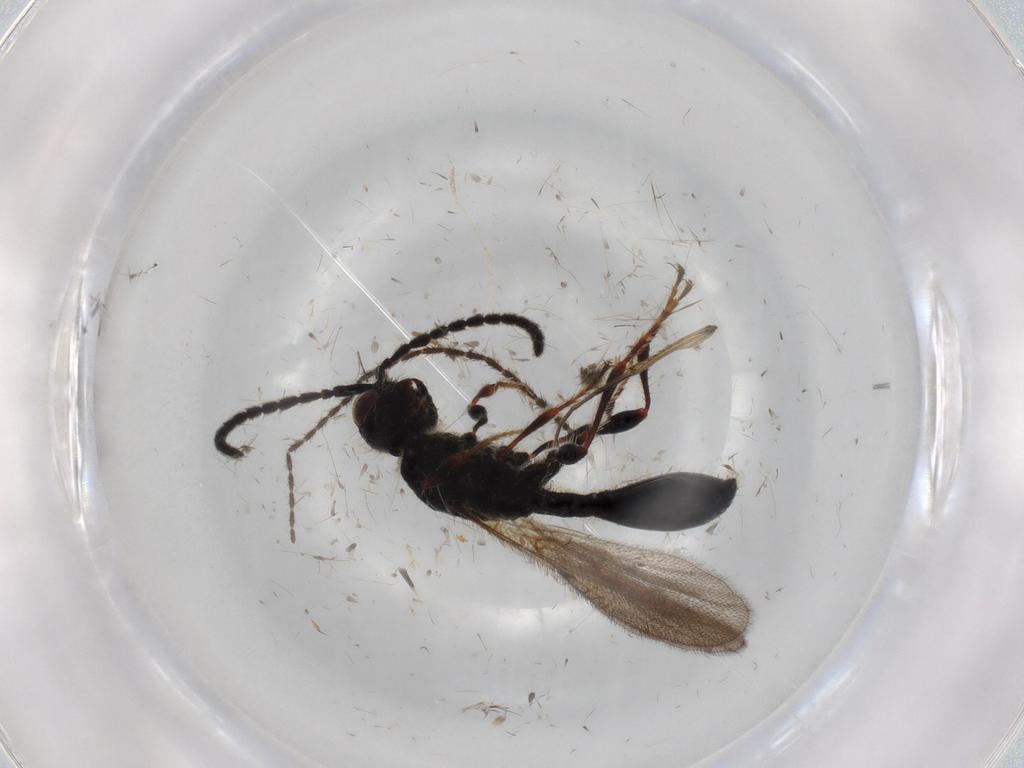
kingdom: Animalia
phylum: Arthropoda
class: Insecta
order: Hymenoptera
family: Diapriidae
